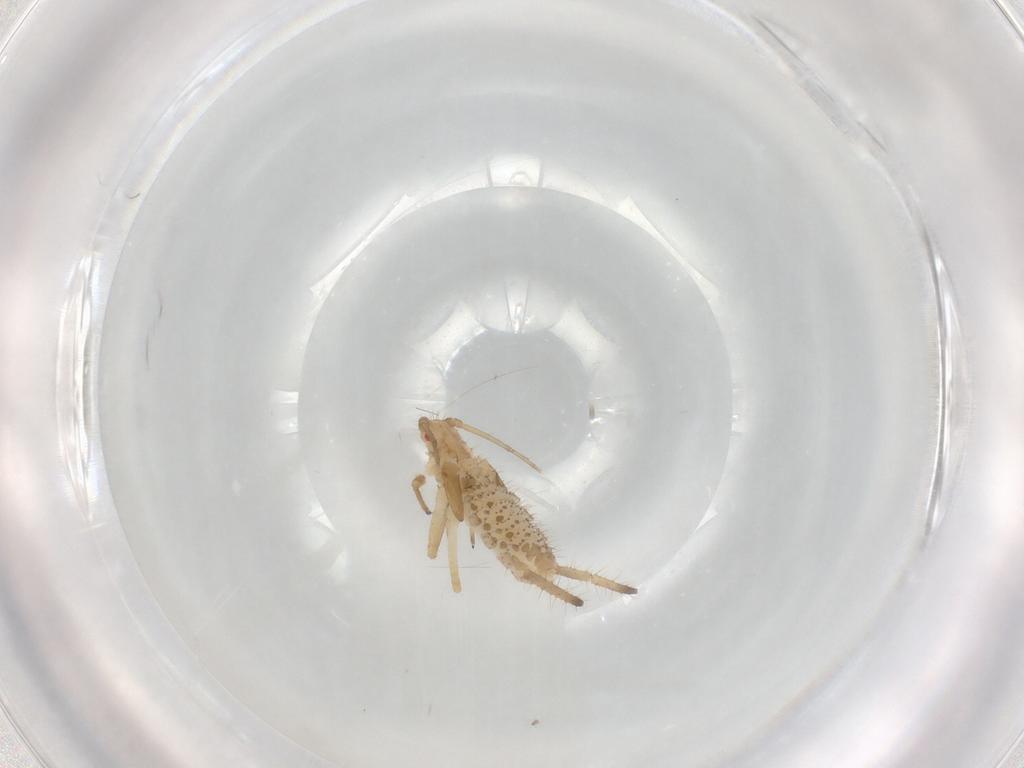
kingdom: Animalia
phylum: Arthropoda
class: Insecta
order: Hemiptera
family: Aphididae
